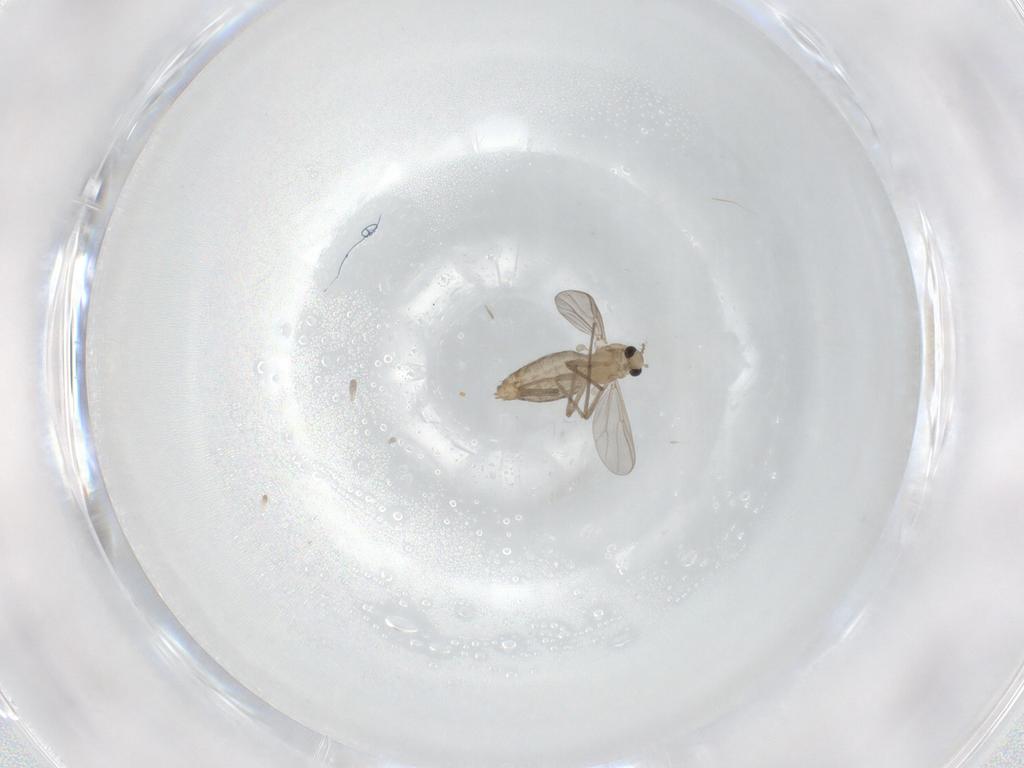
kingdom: Animalia
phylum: Arthropoda
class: Insecta
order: Diptera
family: Chironomidae
